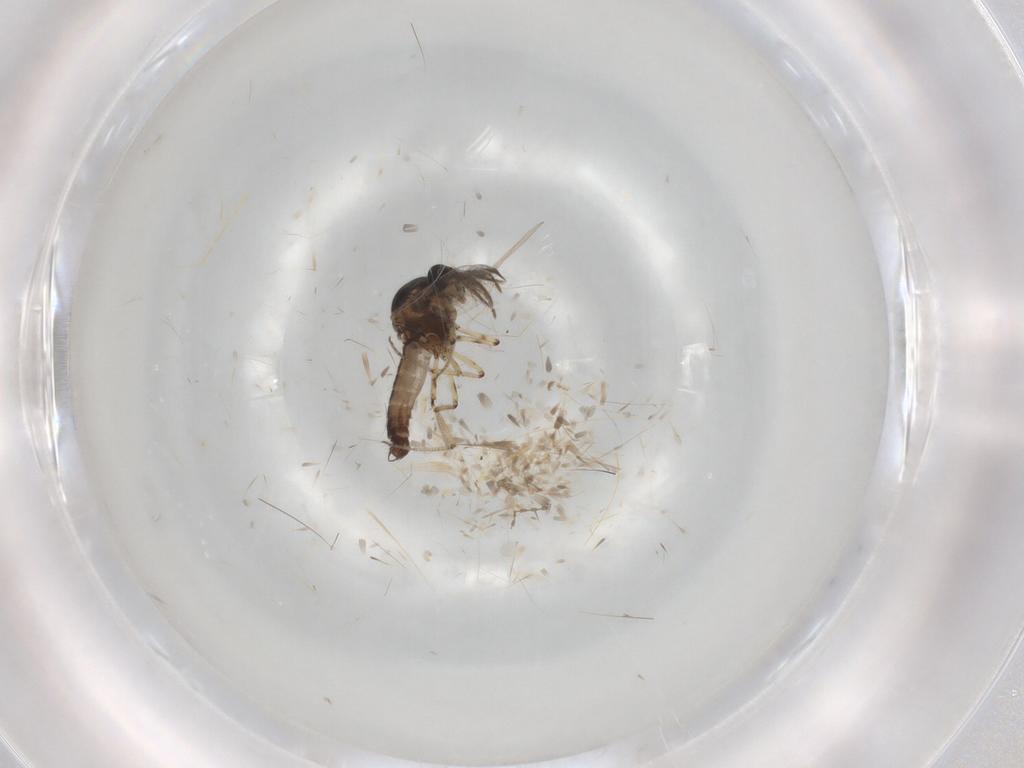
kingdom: Animalia
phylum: Arthropoda
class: Insecta
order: Diptera
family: Ceratopogonidae
